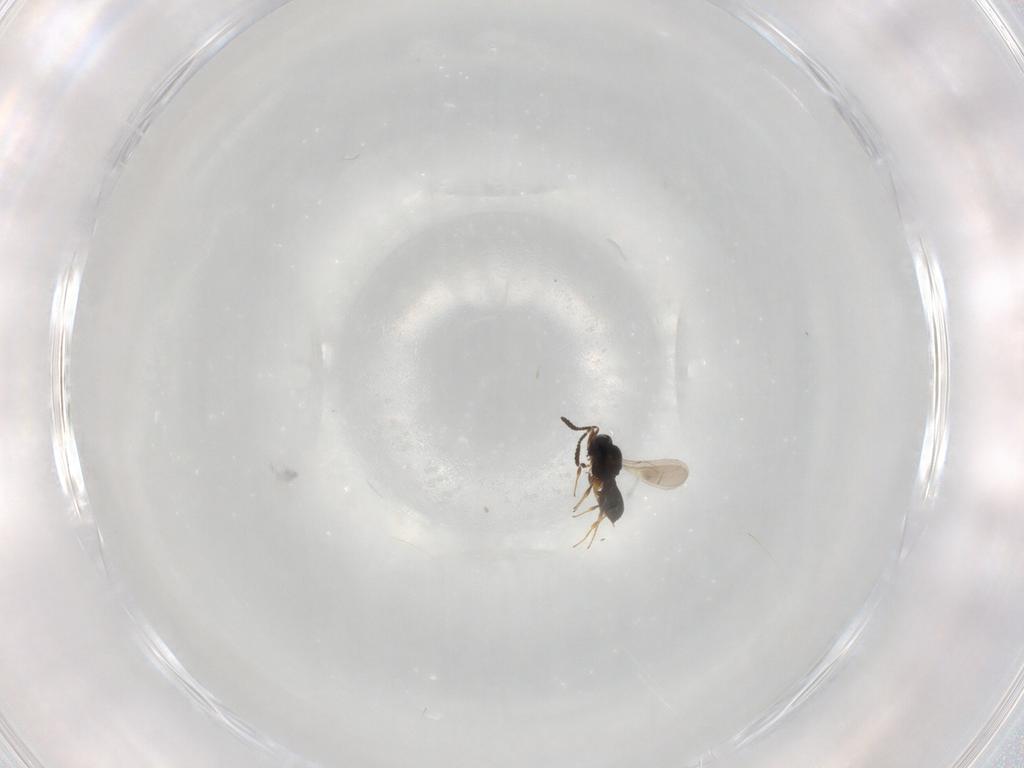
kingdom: Animalia
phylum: Arthropoda
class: Insecta
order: Hymenoptera
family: Scelionidae
